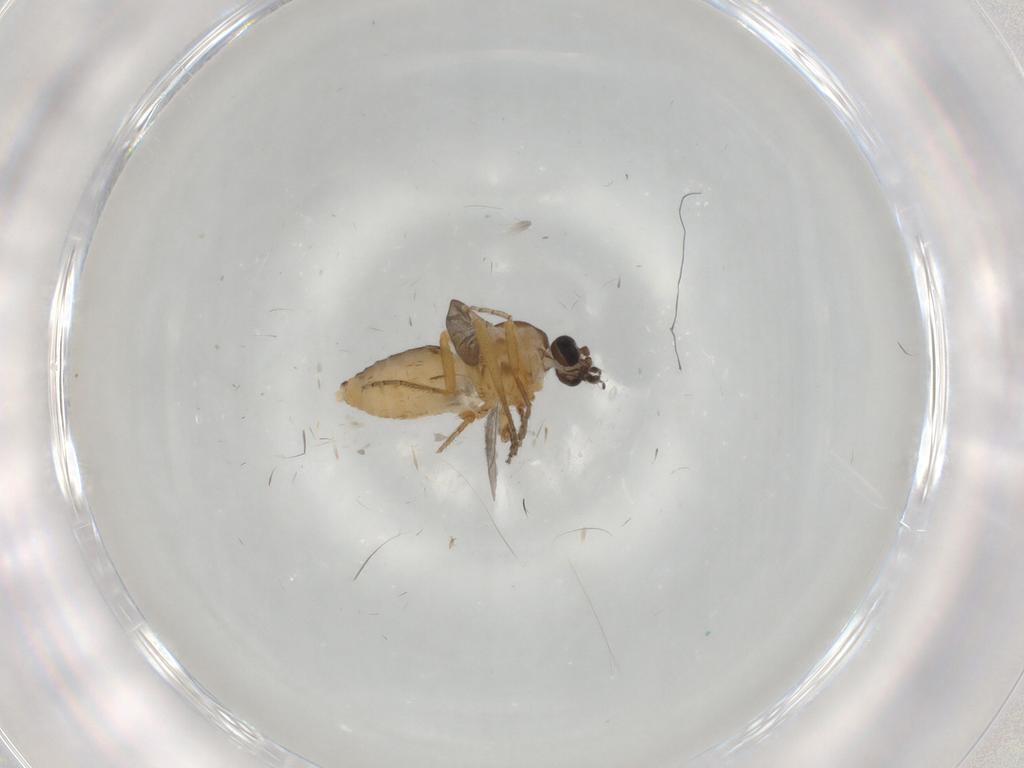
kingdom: Animalia
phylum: Arthropoda
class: Insecta
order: Diptera
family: Ceratopogonidae
